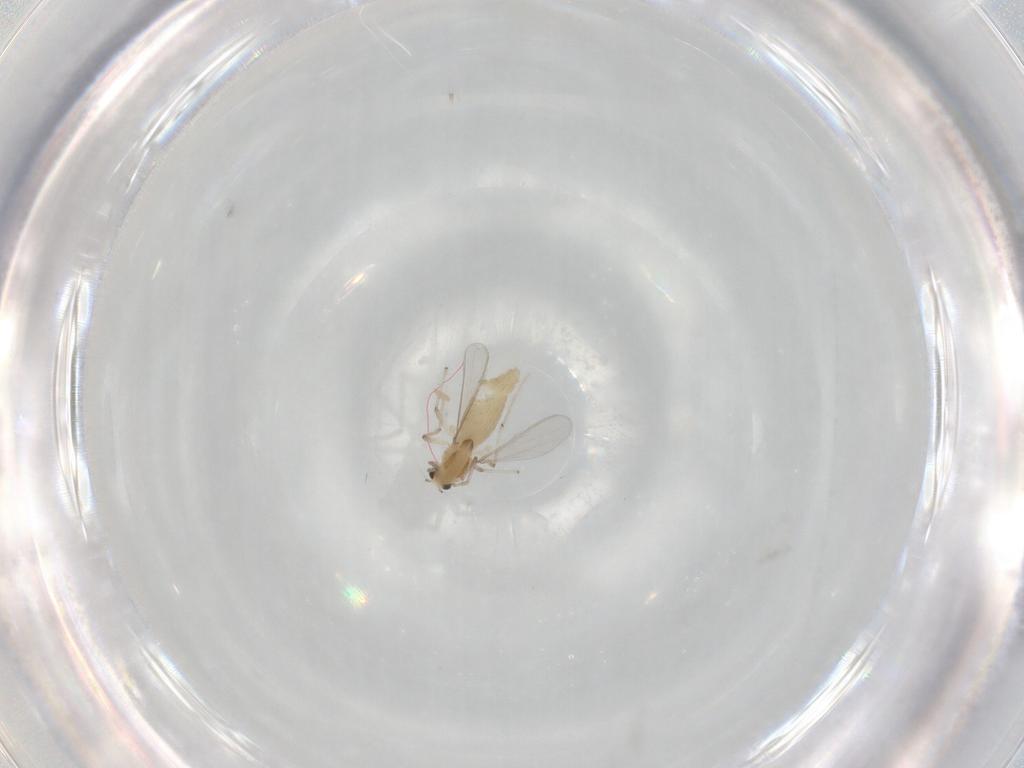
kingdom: Animalia
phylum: Arthropoda
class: Insecta
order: Diptera
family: Chironomidae
